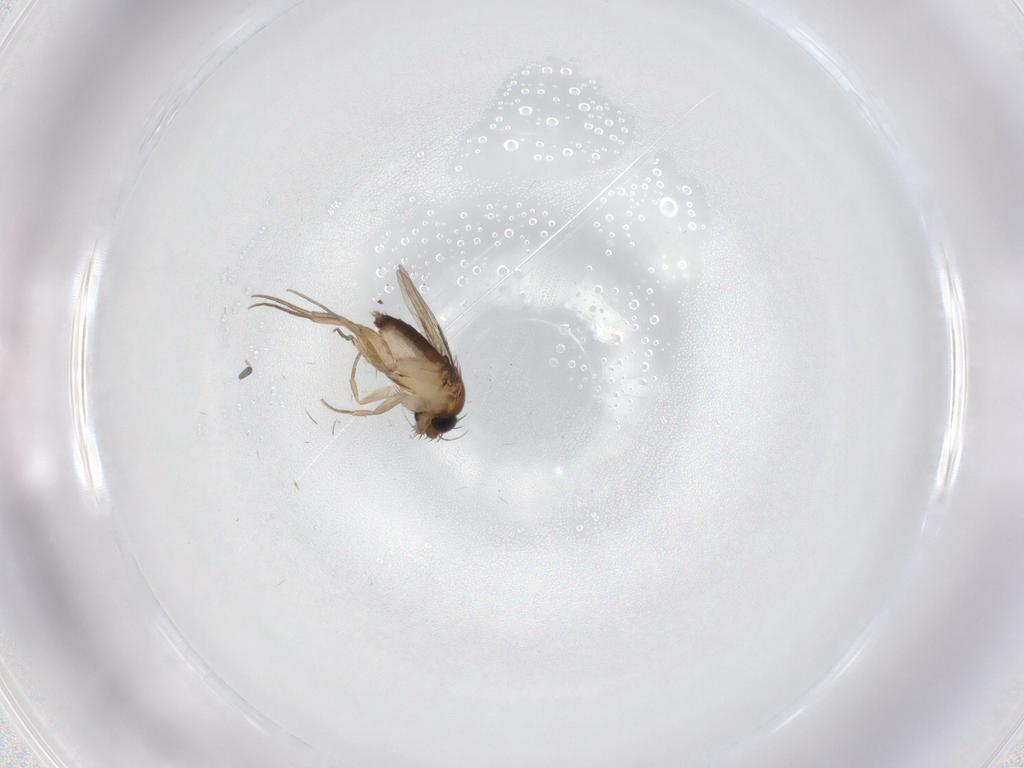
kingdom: Animalia
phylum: Arthropoda
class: Insecta
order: Diptera
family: Phoridae
